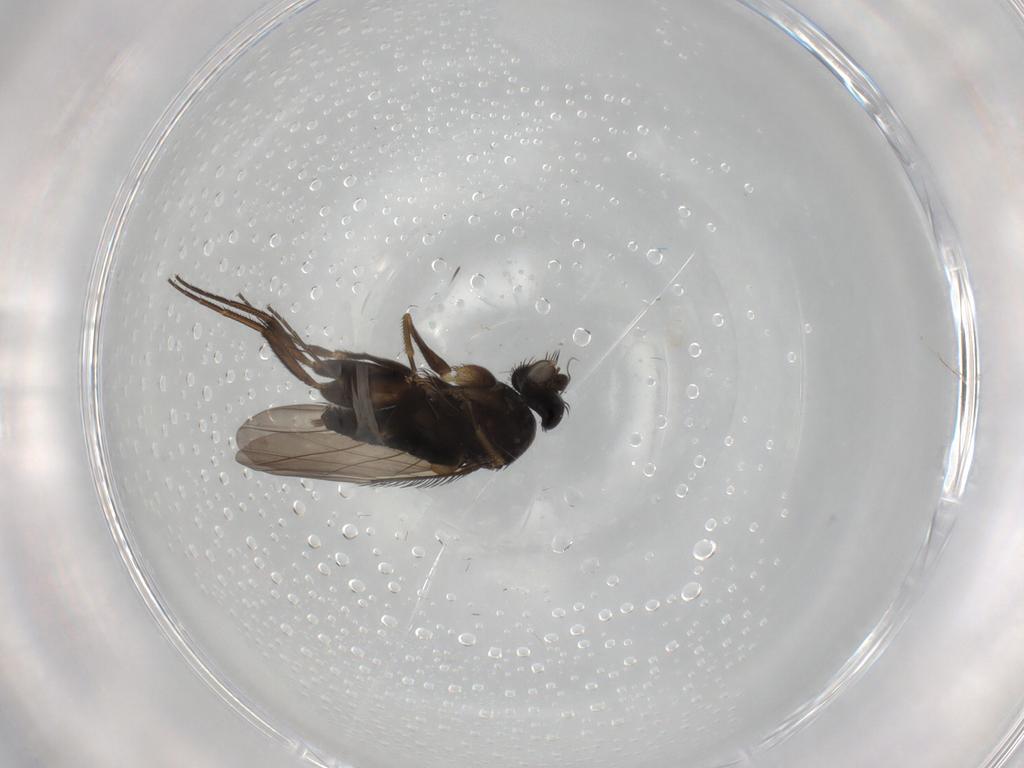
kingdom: Animalia
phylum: Arthropoda
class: Insecta
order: Diptera
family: Phoridae
